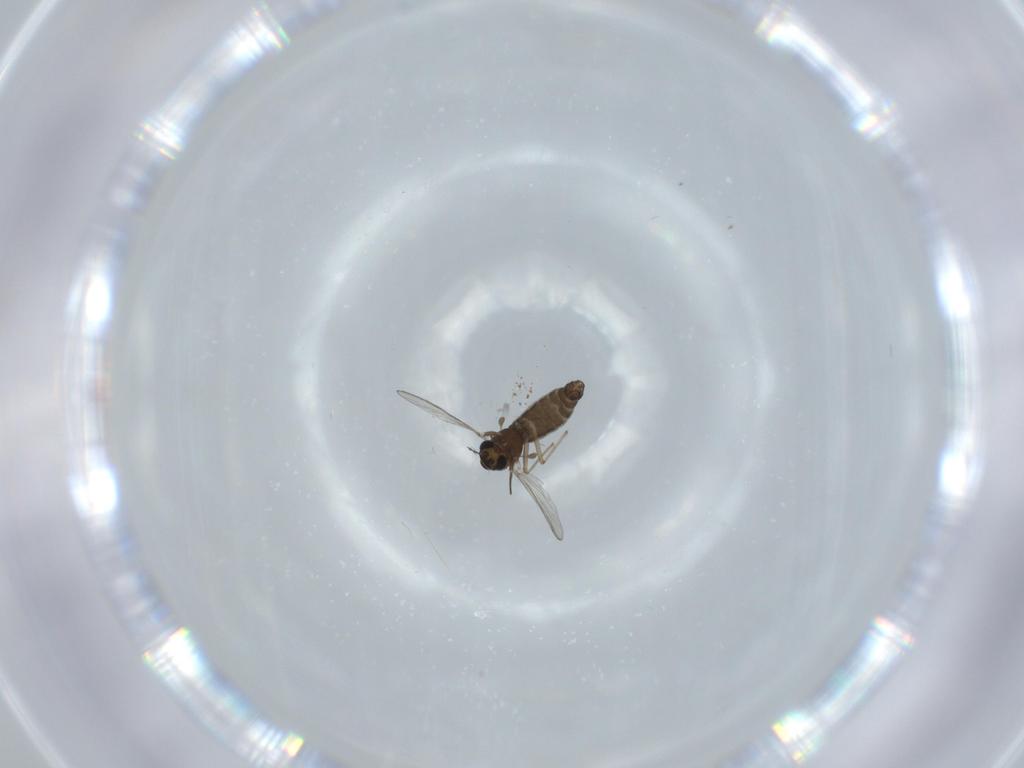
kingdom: Animalia
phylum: Arthropoda
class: Insecta
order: Diptera
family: Chironomidae
